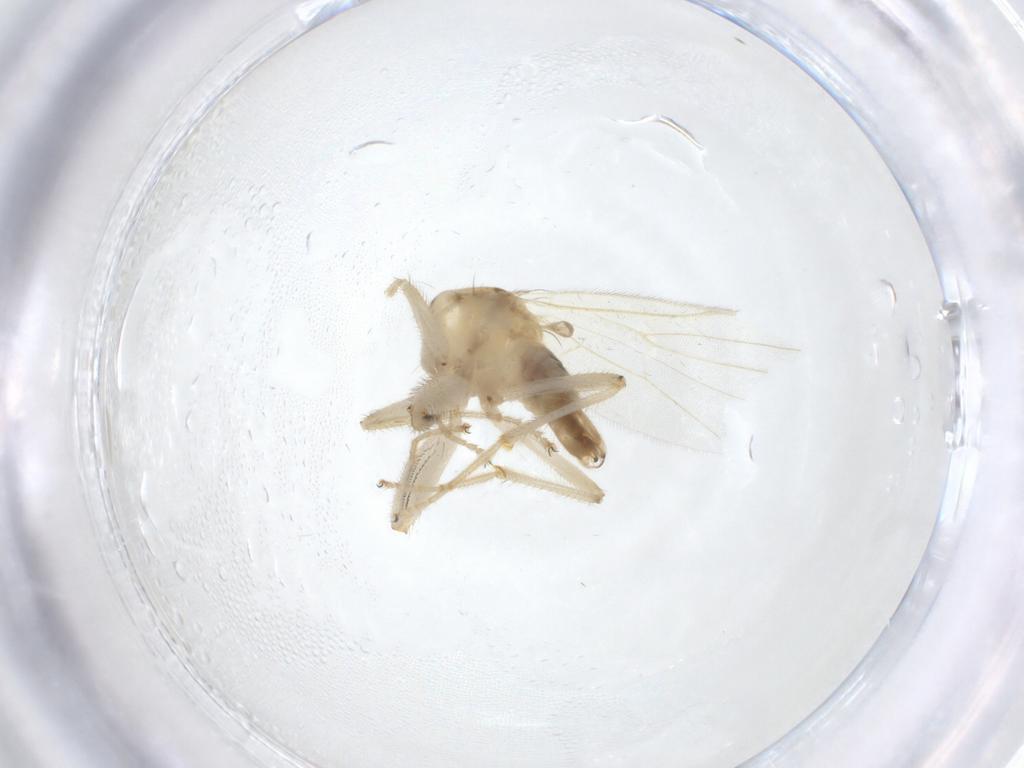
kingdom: Animalia
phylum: Arthropoda
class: Insecta
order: Diptera
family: Hybotidae
